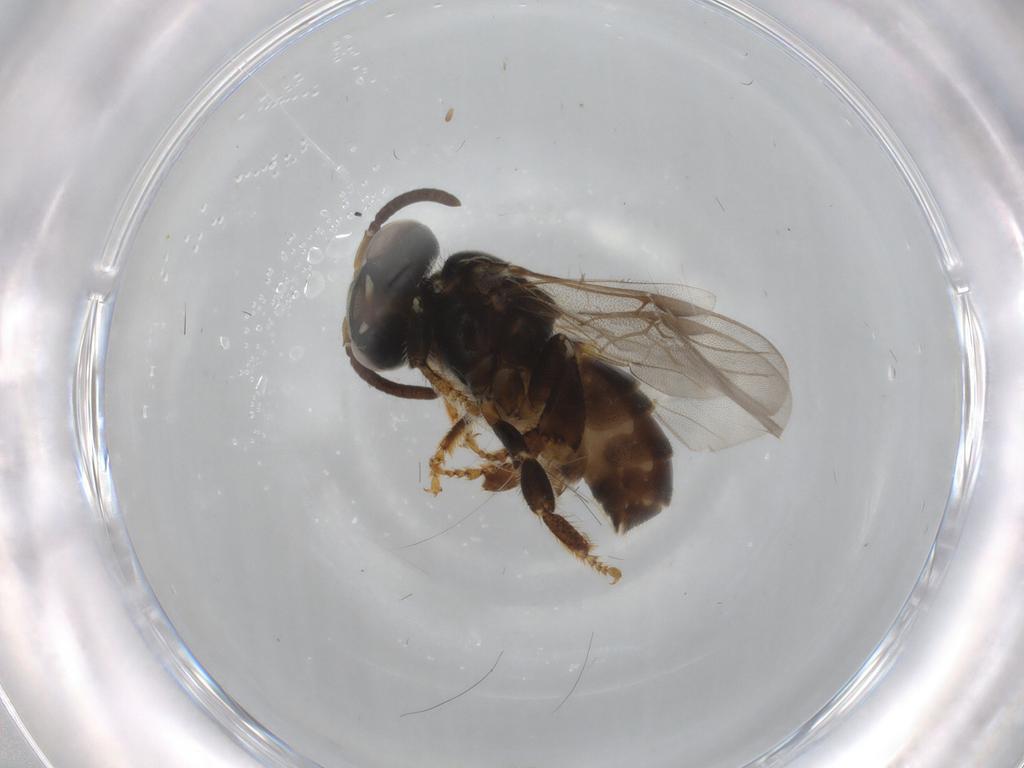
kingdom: Animalia
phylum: Arthropoda
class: Insecta
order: Hymenoptera
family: Apidae
